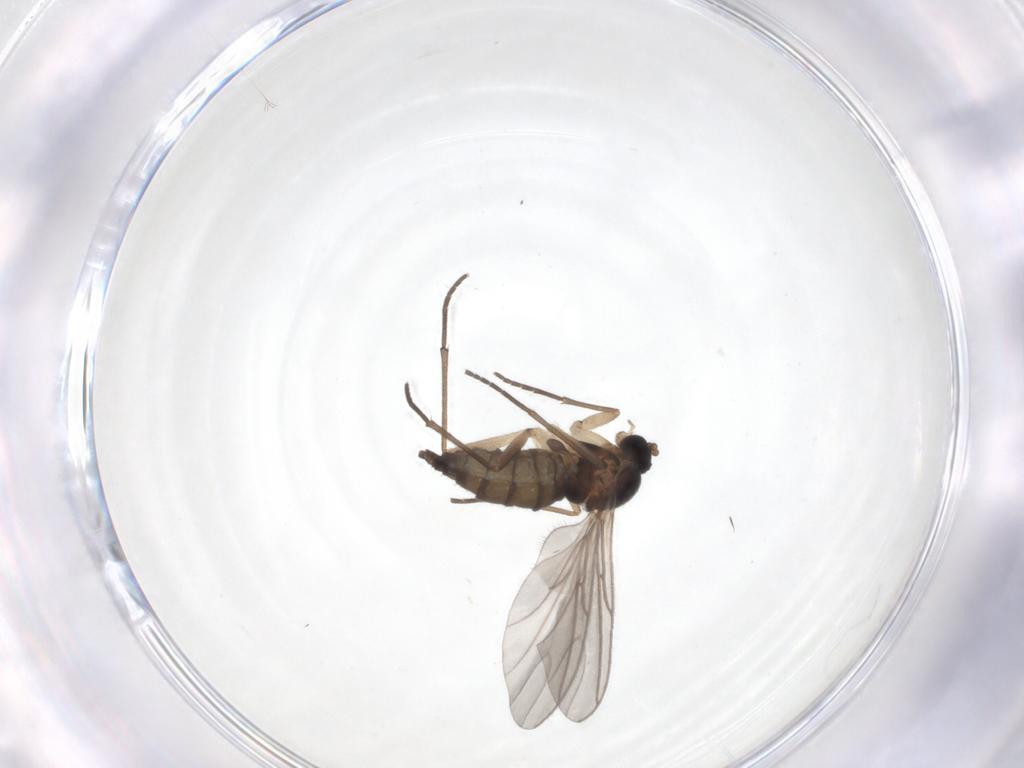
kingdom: Animalia
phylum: Arthropoda
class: Insecta
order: Diptera
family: Sciaridae
